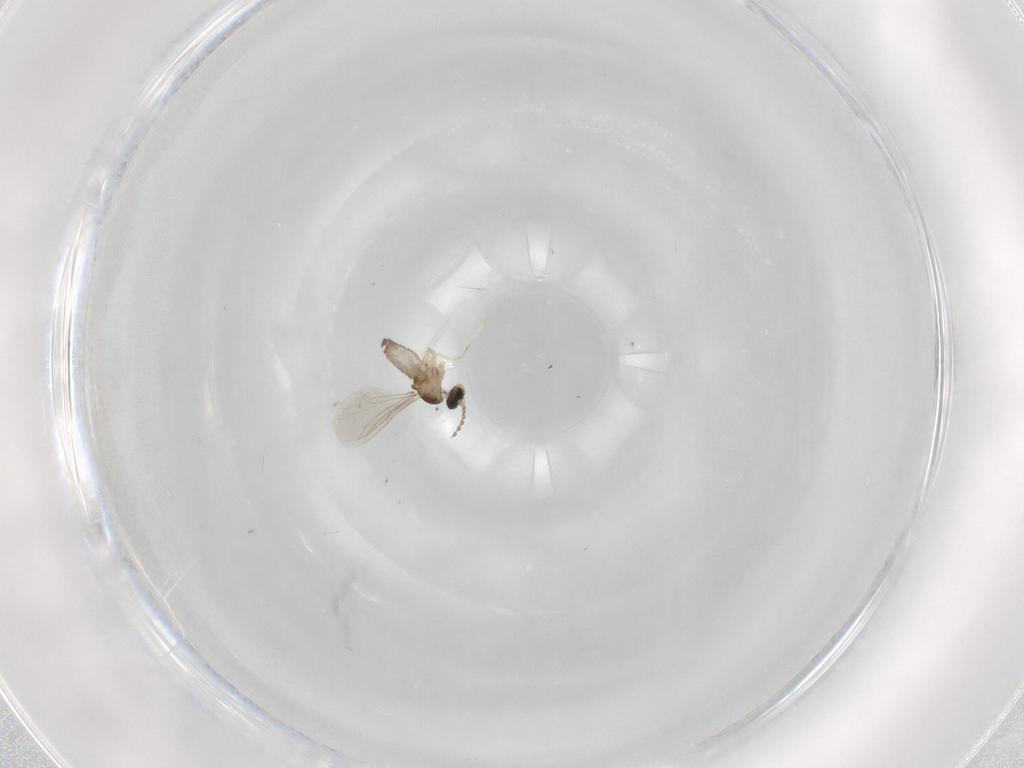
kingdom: Animalia
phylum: Arthropoda
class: Insecta
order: Diptera
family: Cecidomyiidae
